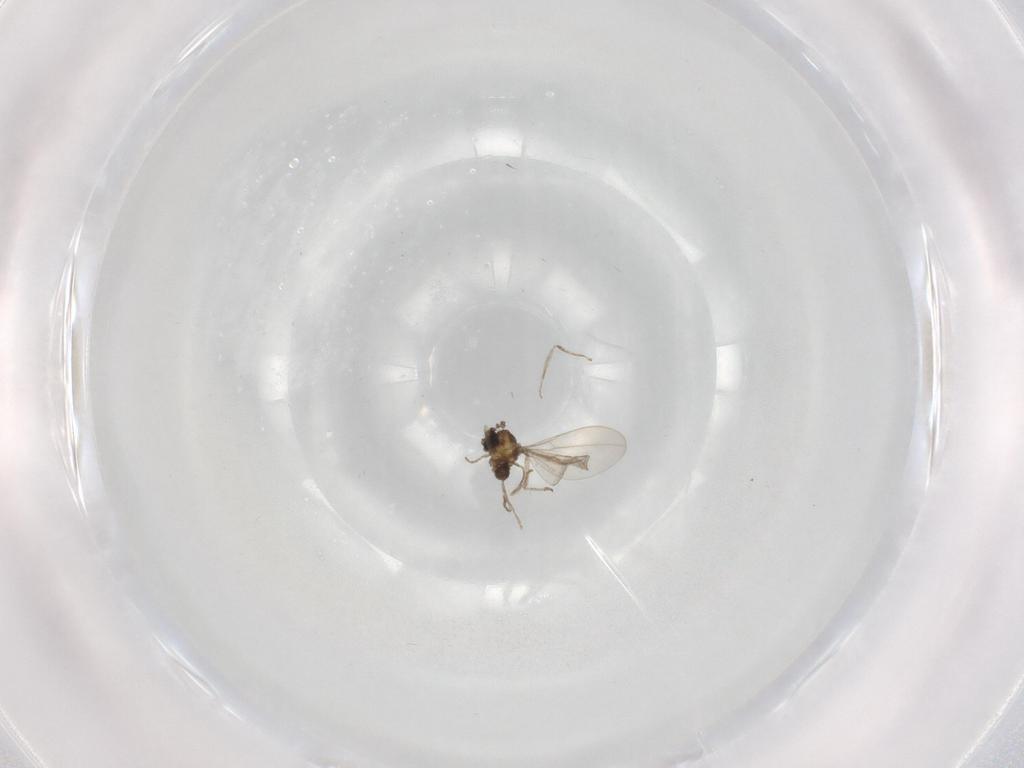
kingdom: Animalia
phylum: Arthropoda
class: Insecta
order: Diptera
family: Cecidomyiidae
